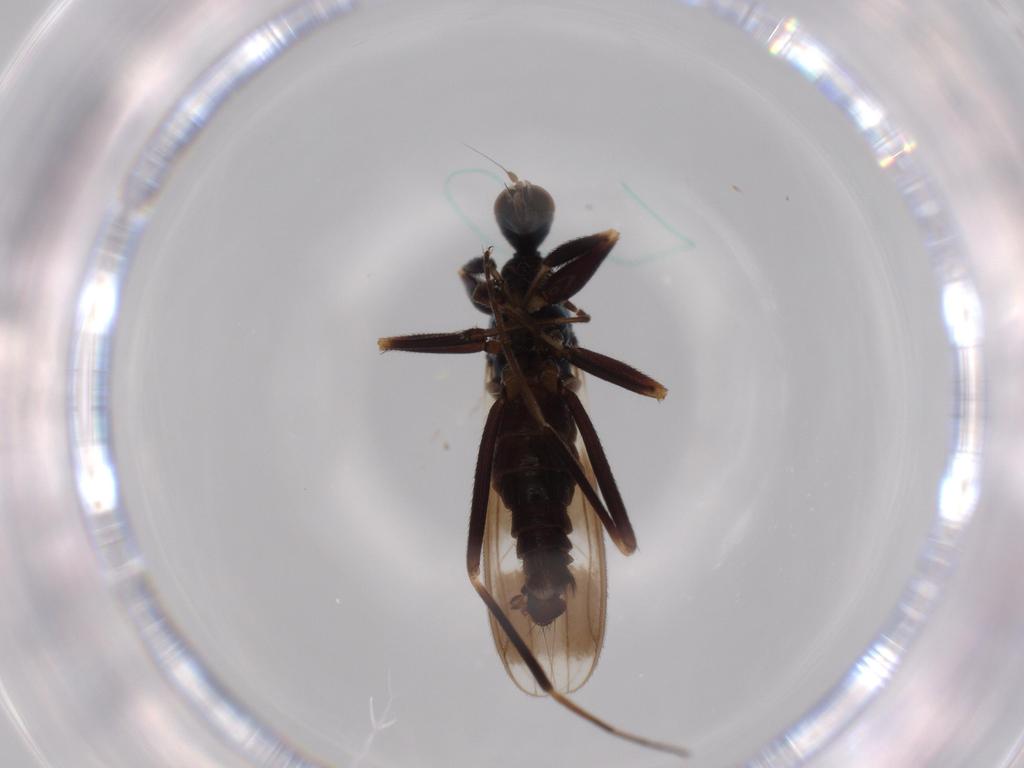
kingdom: Animalia
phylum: Arthropoda
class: Insecta
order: Diptera
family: Hybotidae
